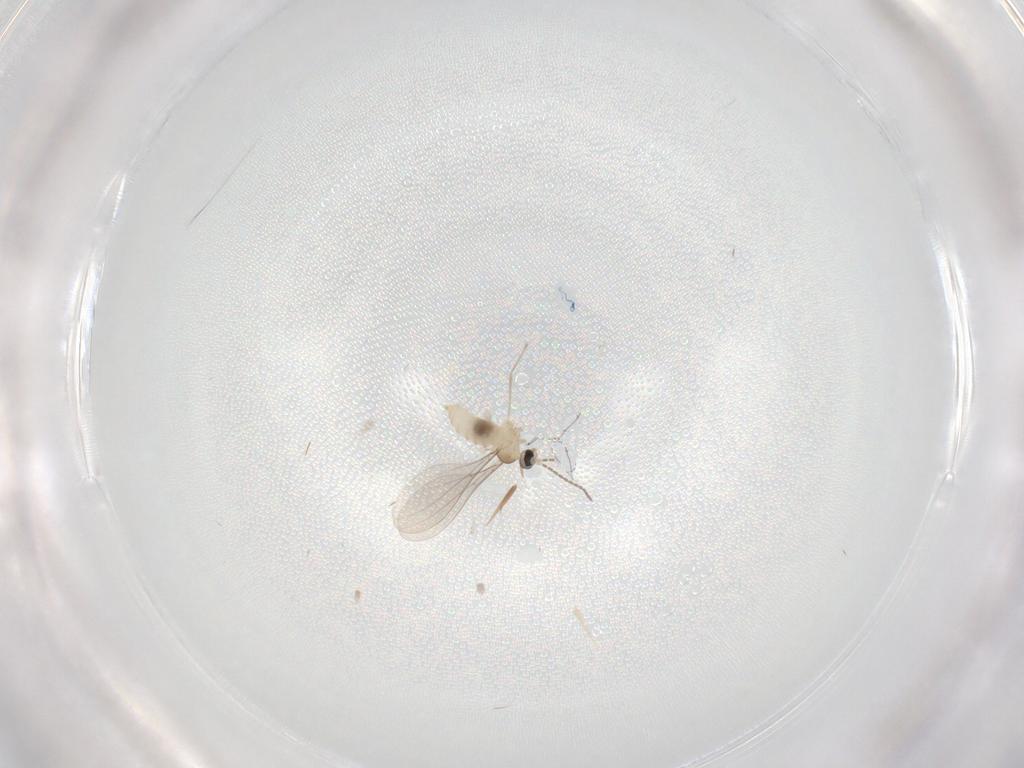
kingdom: Animalia
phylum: Arthropoda
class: Insecta
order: Diptera
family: Cecidomyiidae
